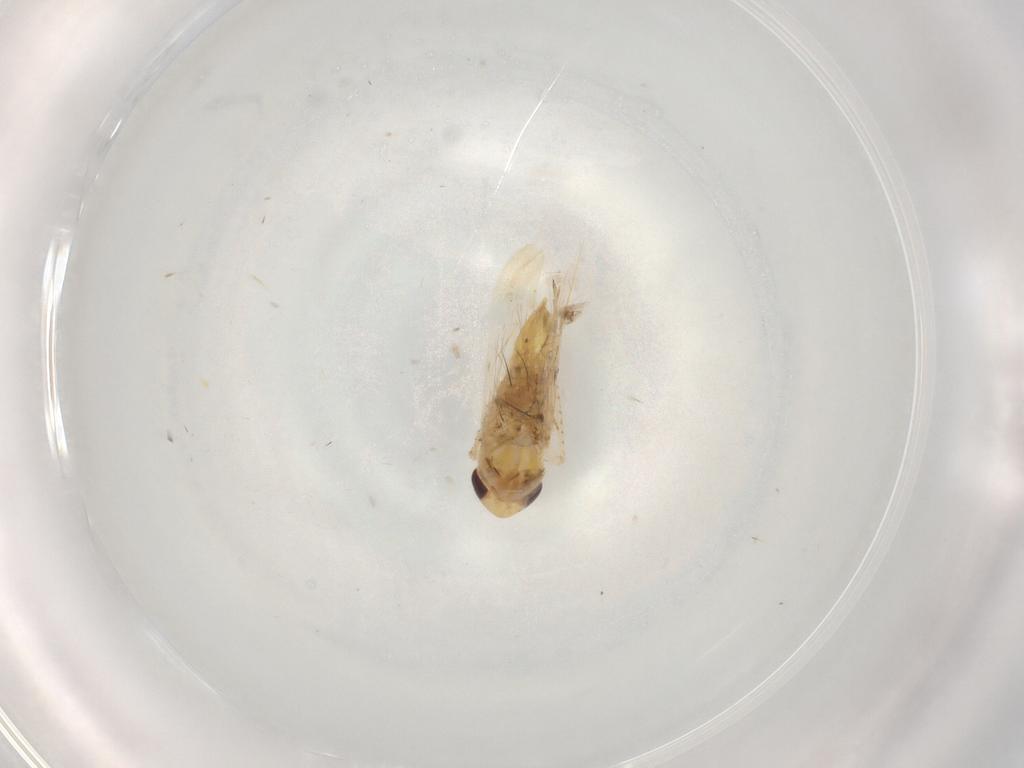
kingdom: Animalia
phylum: Arthropoda
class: Insecta
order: Hemiptera
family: Cicadellidae
